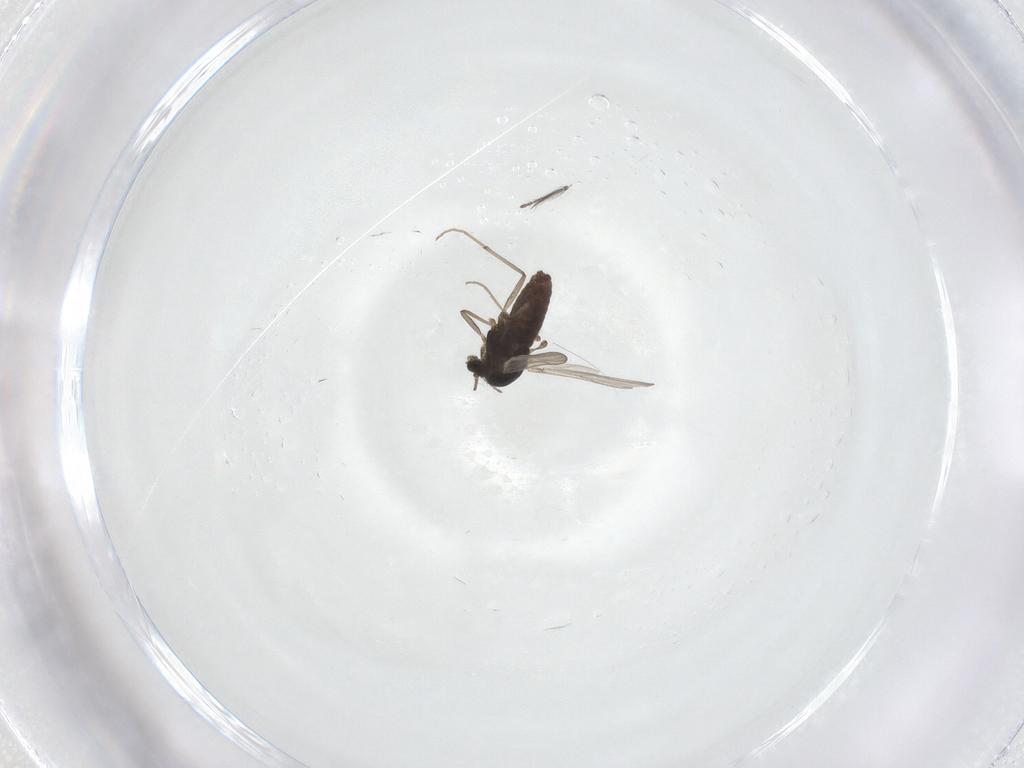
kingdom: Animalia
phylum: Arthropoda
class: Insecta
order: Diptera
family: Chironomidae
